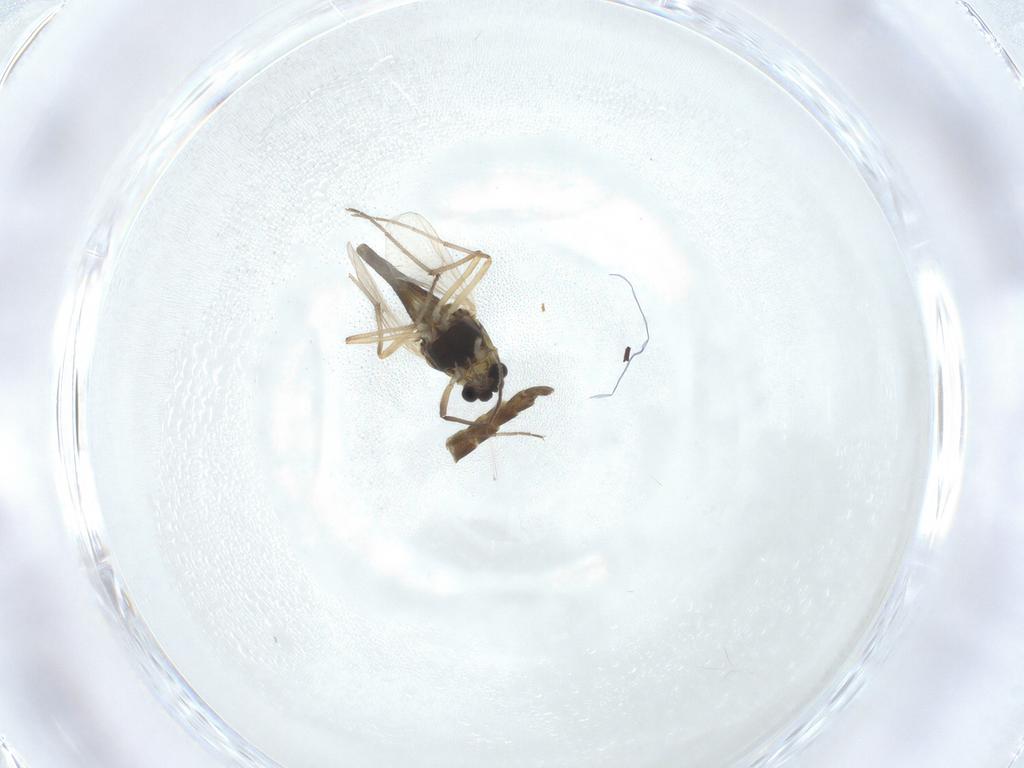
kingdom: Animalia
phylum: Arthropoda
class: Insecta
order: Diptera
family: Chironomidae
